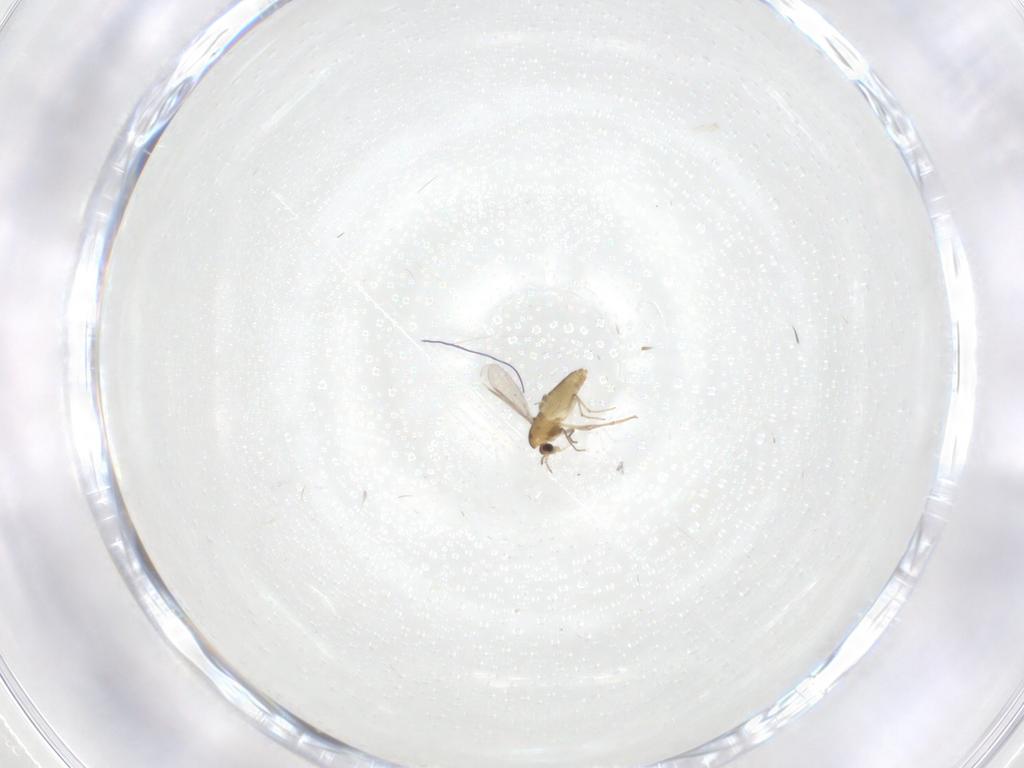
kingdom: Animalia
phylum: Arthropoda
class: Insecta
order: Diptera
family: Chironomidae
